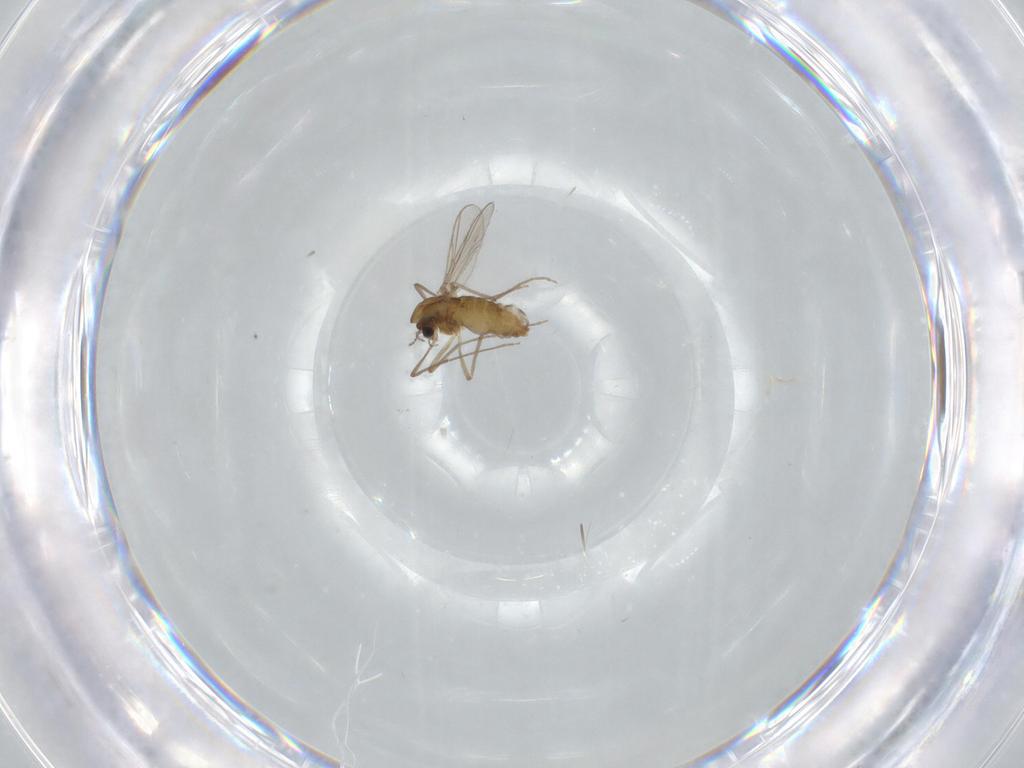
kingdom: Animalia
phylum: Arthropoda
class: Insecta
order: Diptera
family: Chironomidae
